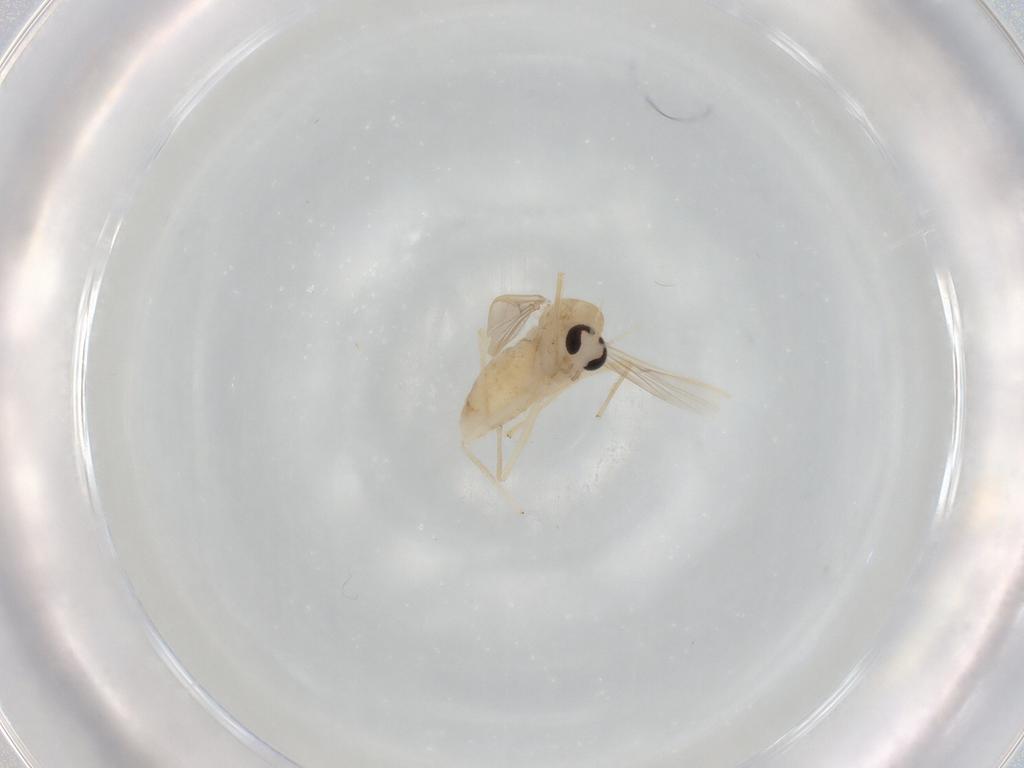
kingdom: Animalia
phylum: Arthropoda
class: Insecta
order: Diptera
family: Chironomidae
